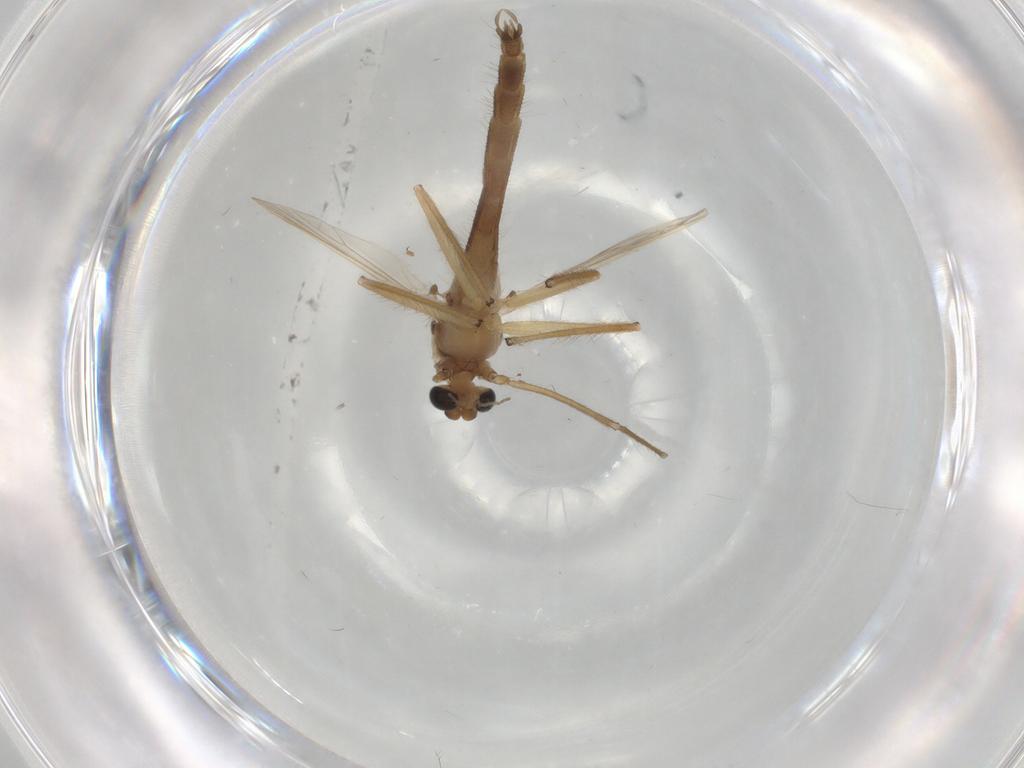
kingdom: Animalia
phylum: Arthropoda
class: Insecta
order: Diptera
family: Chironomidae
